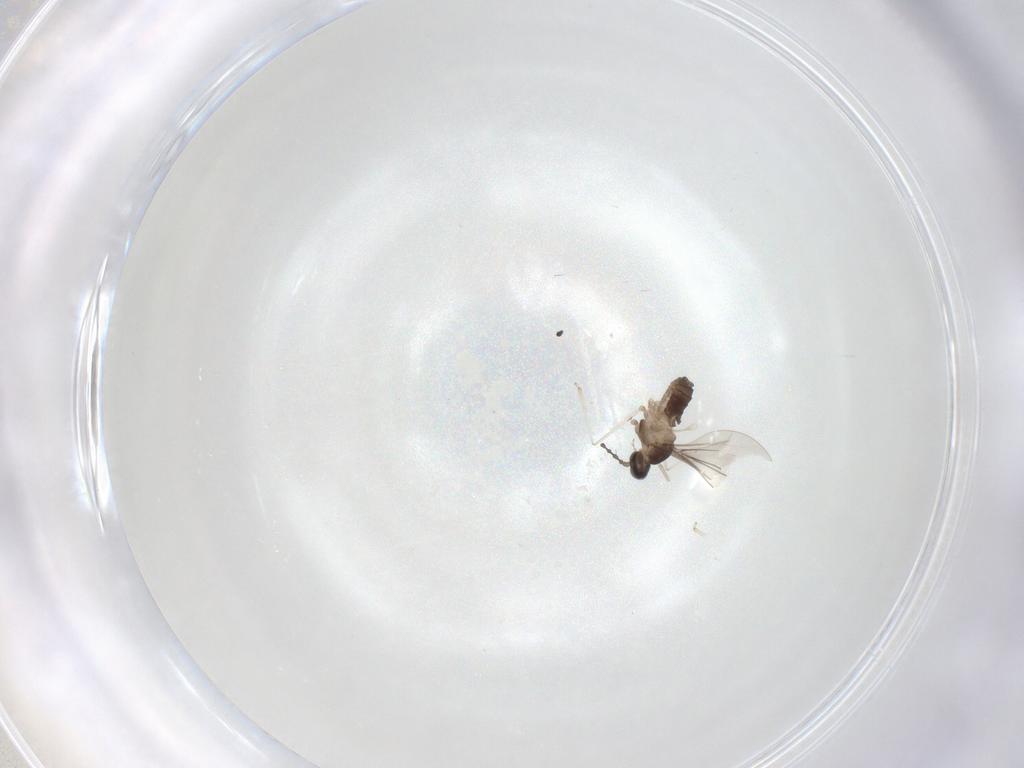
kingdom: Animalia
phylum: Arthropoda
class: Insecta
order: Diptera
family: Cecidomyiidae
